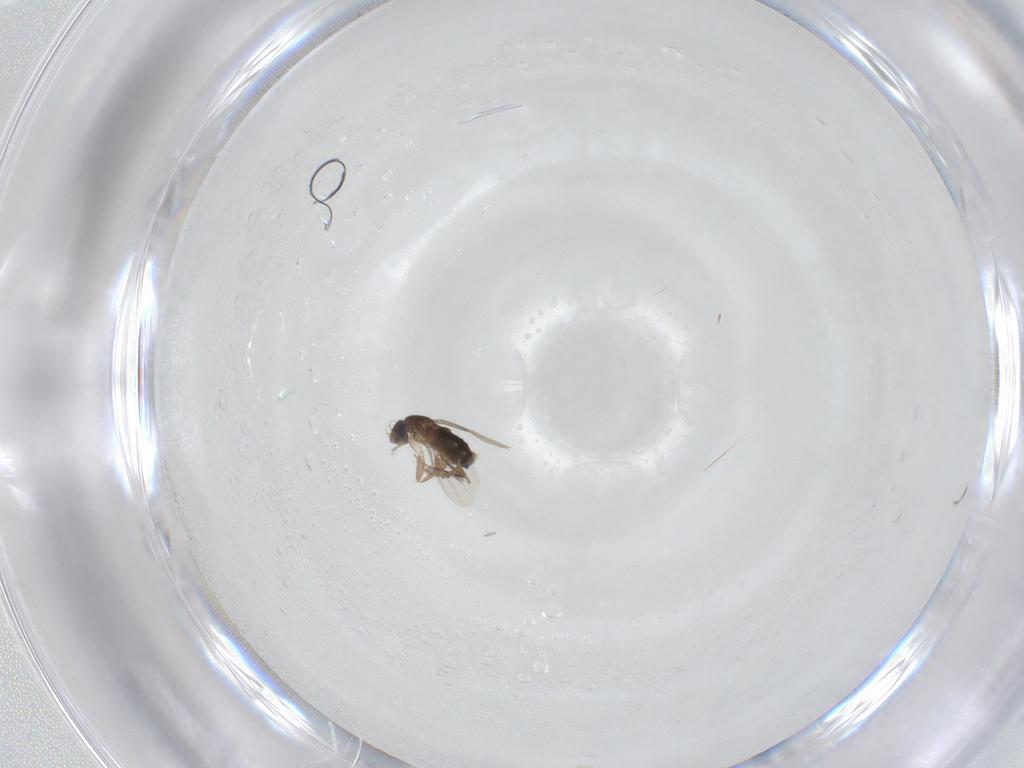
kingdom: Animalia
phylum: Arthropoda
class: Insecta
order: Diptera
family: Phoridae
